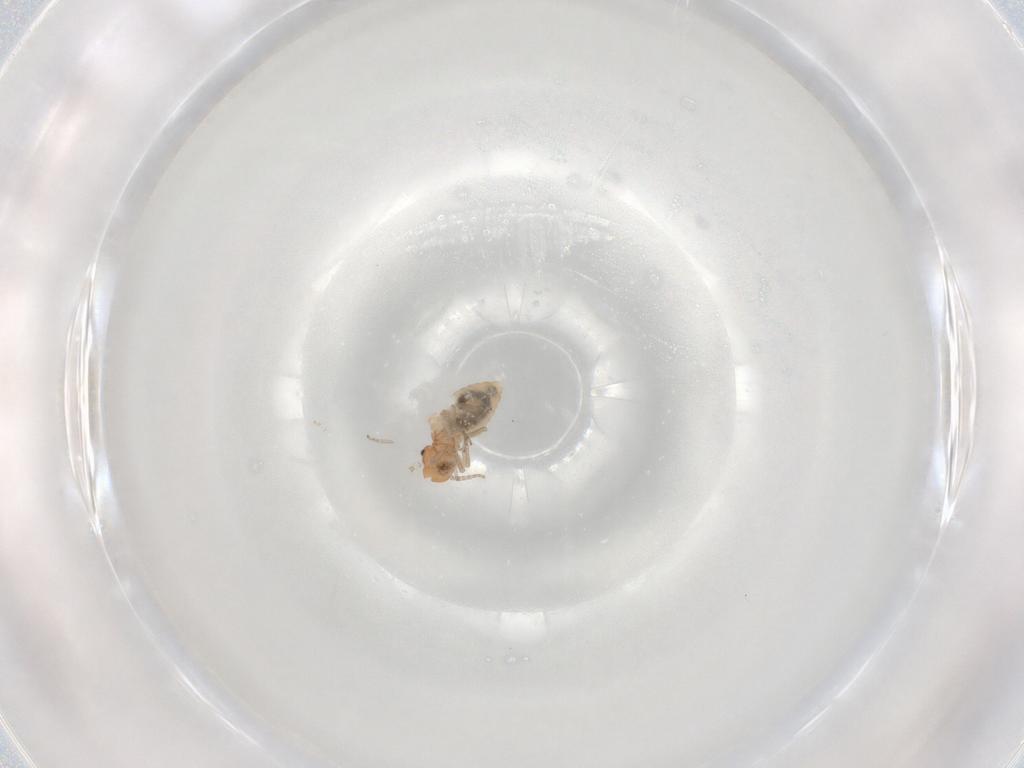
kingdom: Animalia
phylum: Arthropoda
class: Insecta
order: Psocodea
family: Caeciliusidae
